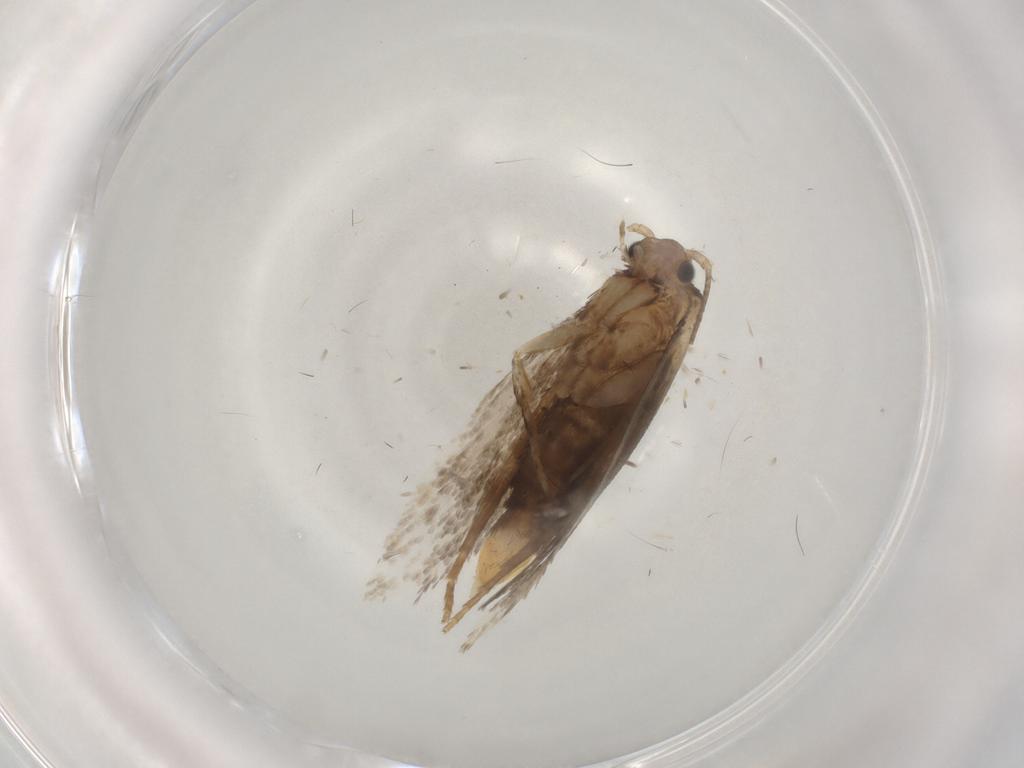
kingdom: Animalia
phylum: Arthropoda
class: Insecta
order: Lepidoptera
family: Nepticulidae
